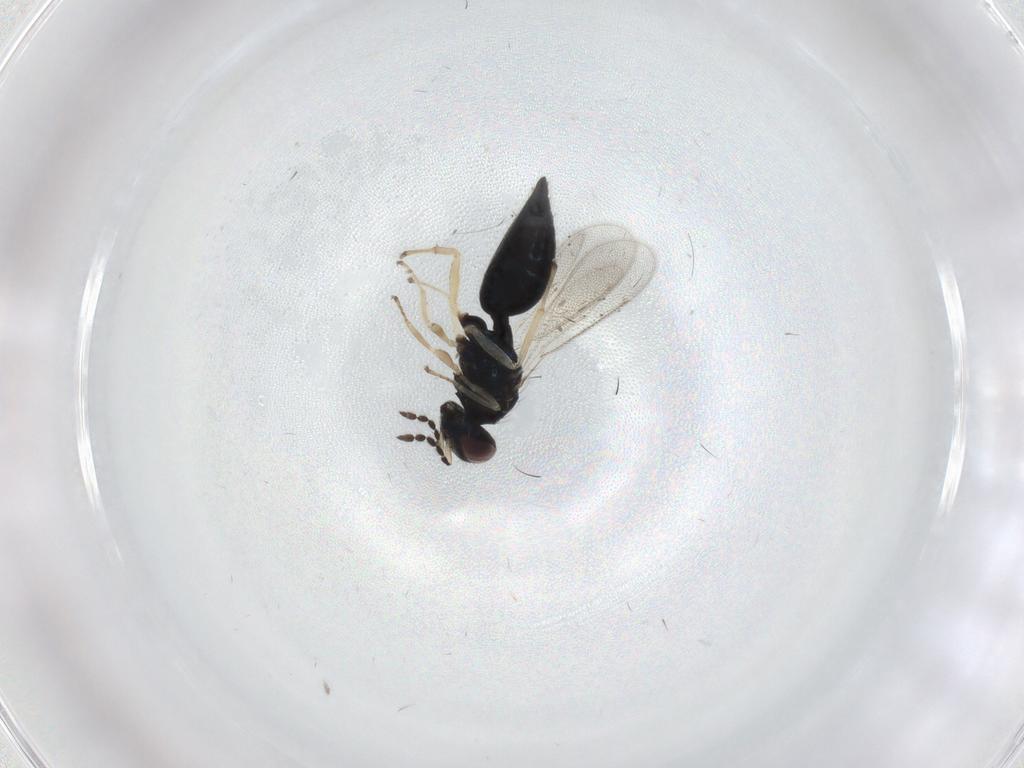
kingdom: Animalia
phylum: Arthropoda
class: Insecta
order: Hymenoptera
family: Eulophidae
